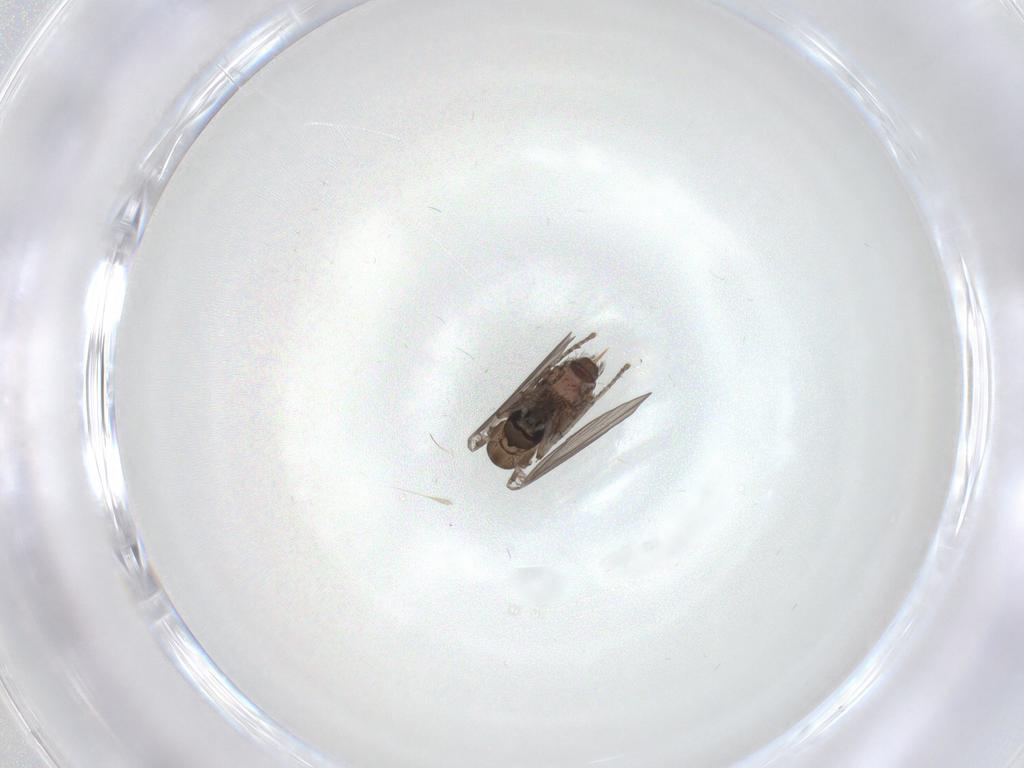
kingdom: Animalia
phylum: Arthropoda
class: Insecta
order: Diptera
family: Psychodidae
